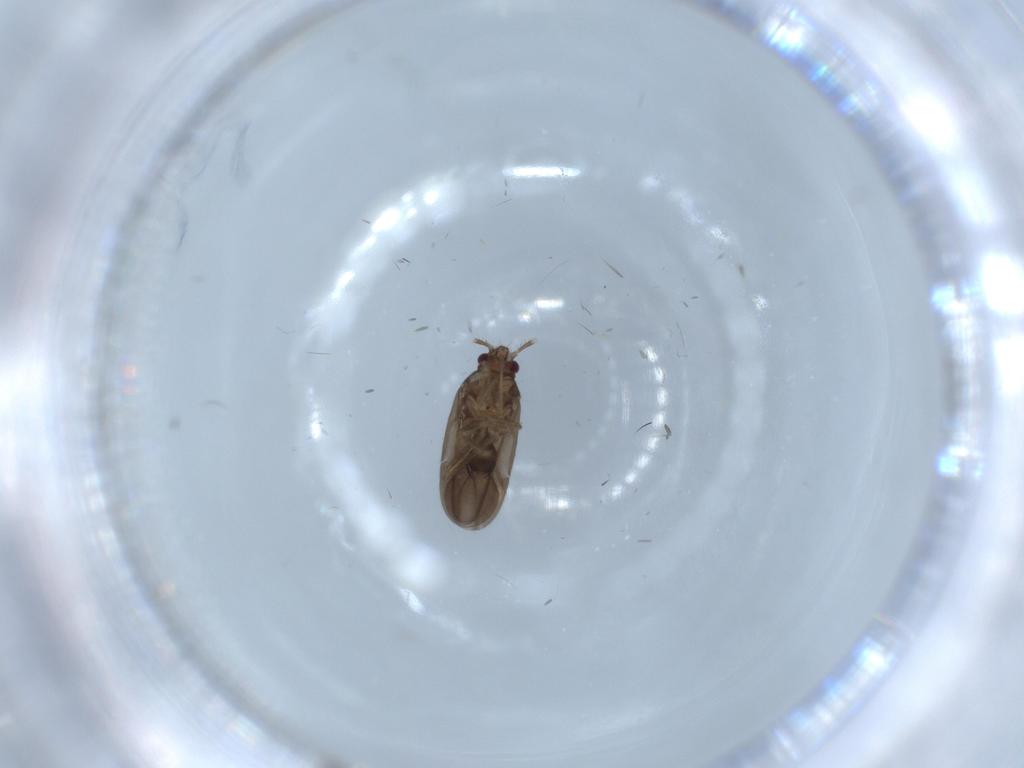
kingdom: Animalia
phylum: Arthropoda
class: Insecta
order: Hemiptera
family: Ceratocombidae
